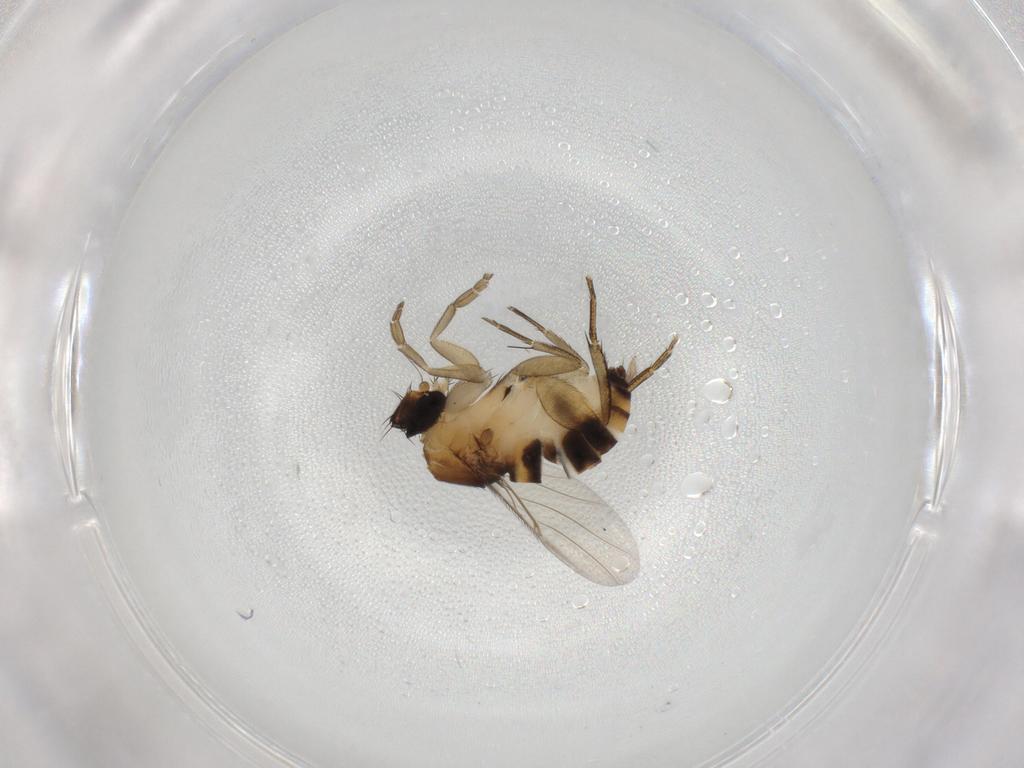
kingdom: Animalia
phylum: Arthropoda
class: Insecta
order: Diptera
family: Phoridae
